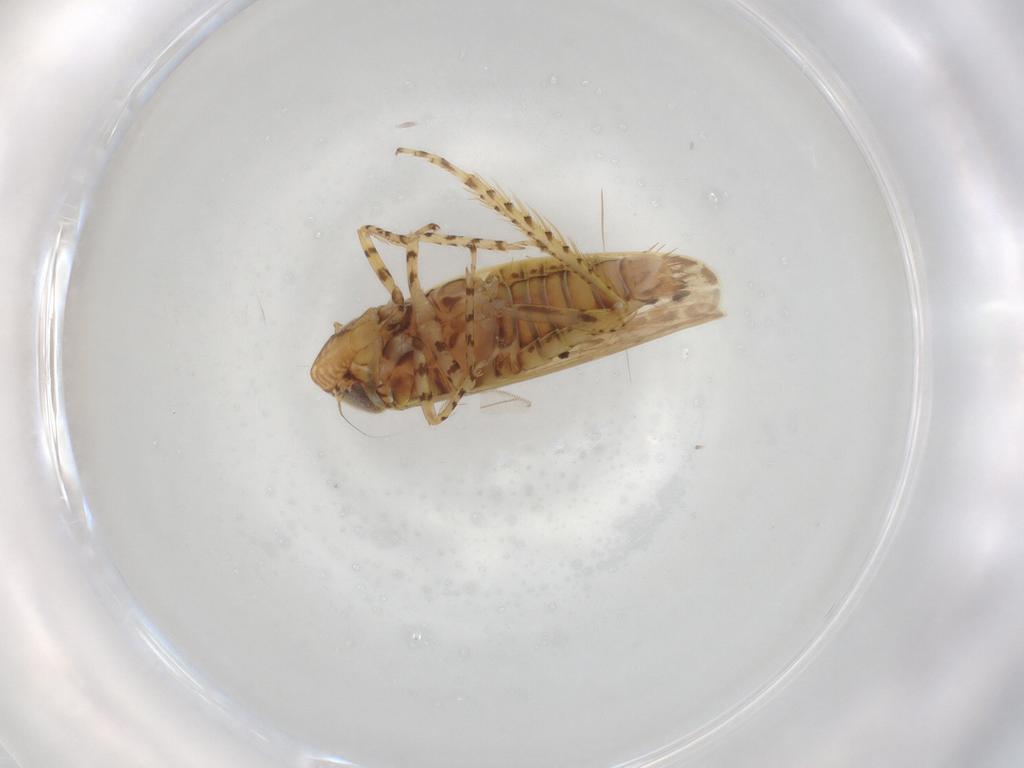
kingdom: Animalia
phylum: Arthropoda
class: Insecta
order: Hemiptera
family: Cicadellidae
